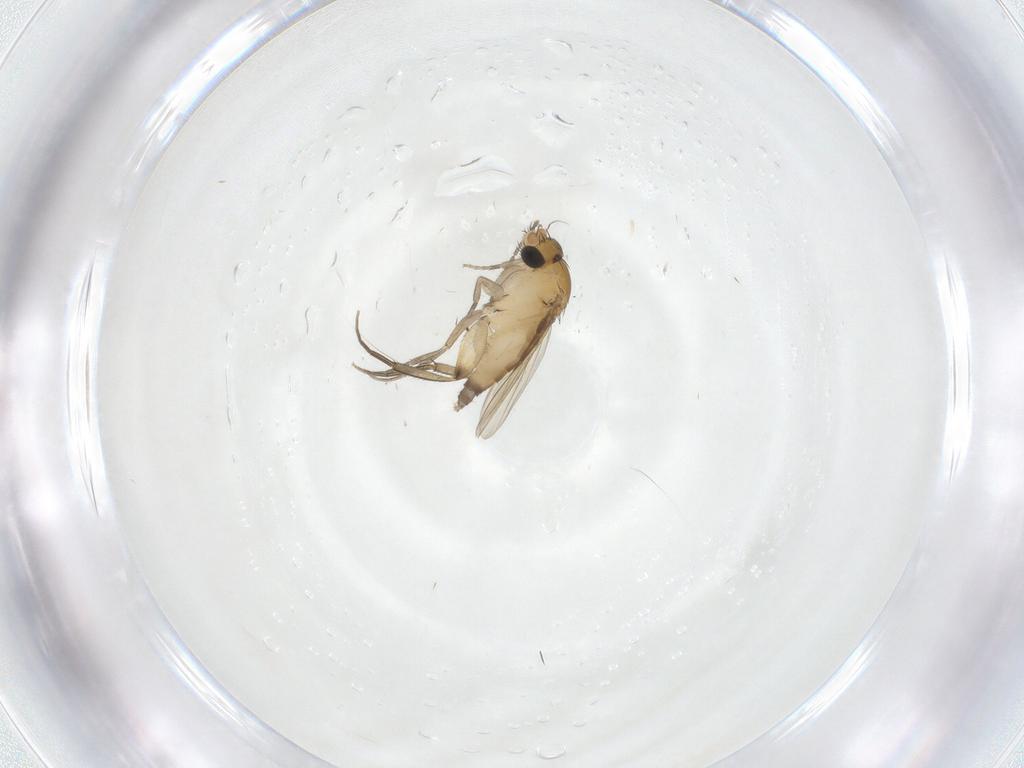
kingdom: Animalia
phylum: Arthropoda
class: Insecta
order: Diptera
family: Phoridae
